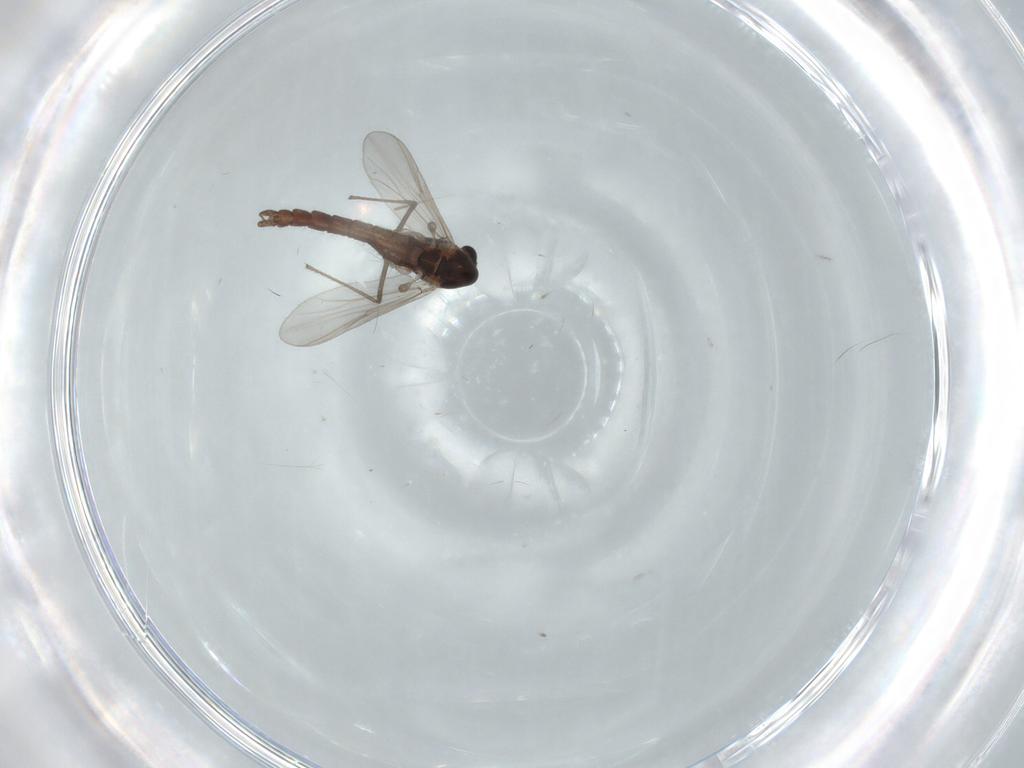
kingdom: Animalia
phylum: Arthropoda
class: Insecta
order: Diptera
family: Chironomidae
